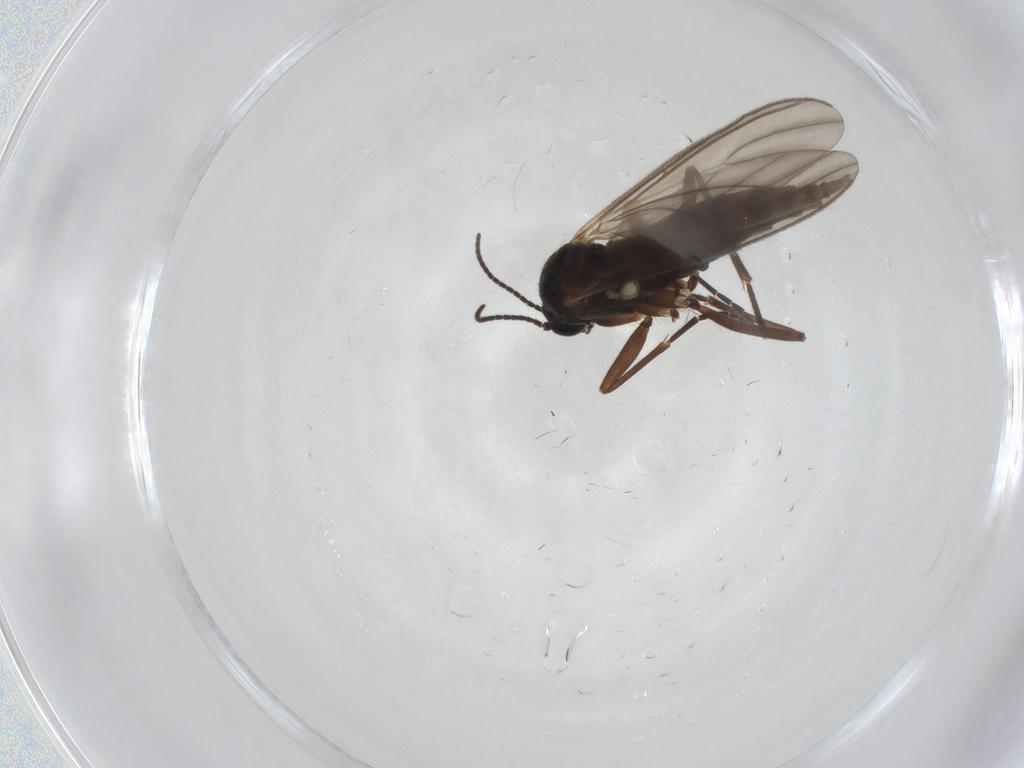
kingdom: Animalia
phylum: Arthropoda
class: Insecta
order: Diptera
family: Sciaridae
